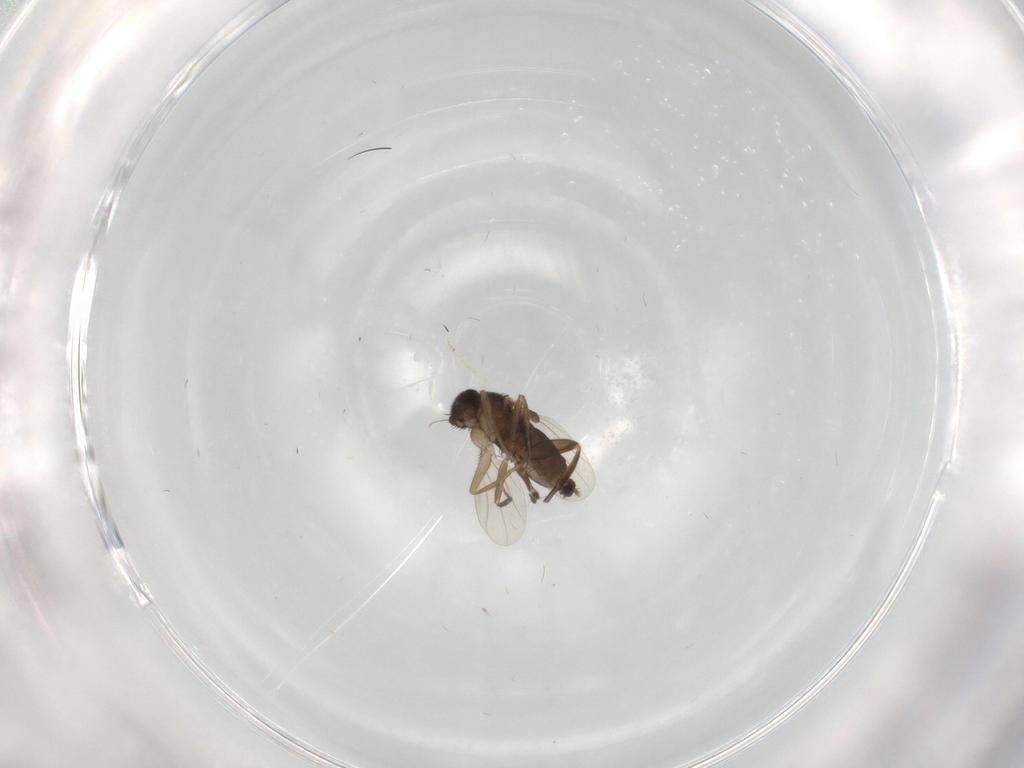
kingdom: Animalia
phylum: Arthropoda
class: Insecta
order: Diptera
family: Phoridae
